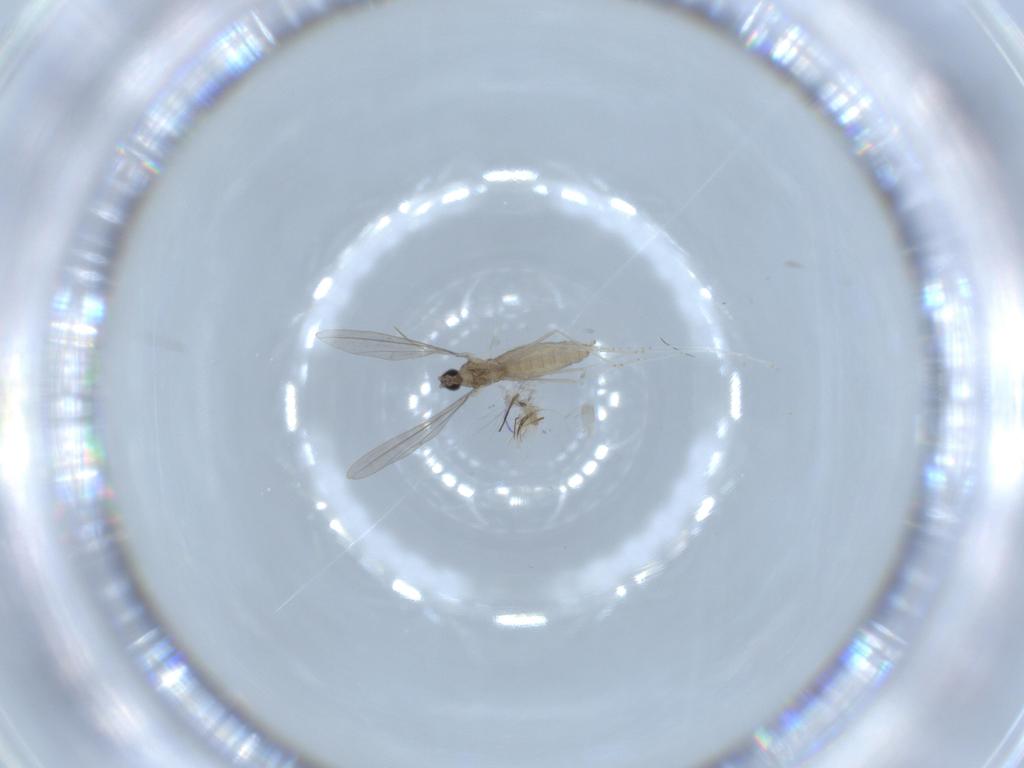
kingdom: Animalia
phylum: Arthropoda
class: Insecta
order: Diptera
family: Cecidomyiidae
